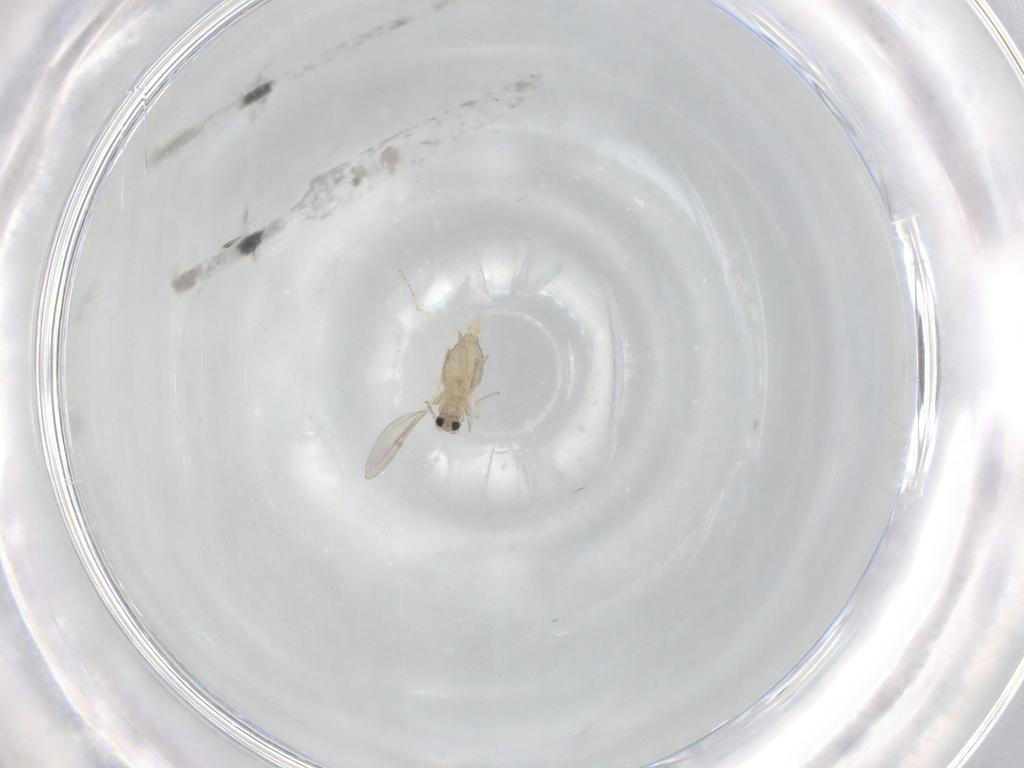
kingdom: Animalia
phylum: Arthropoda
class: Insecta
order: Diptera
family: Cecidomyiidae
